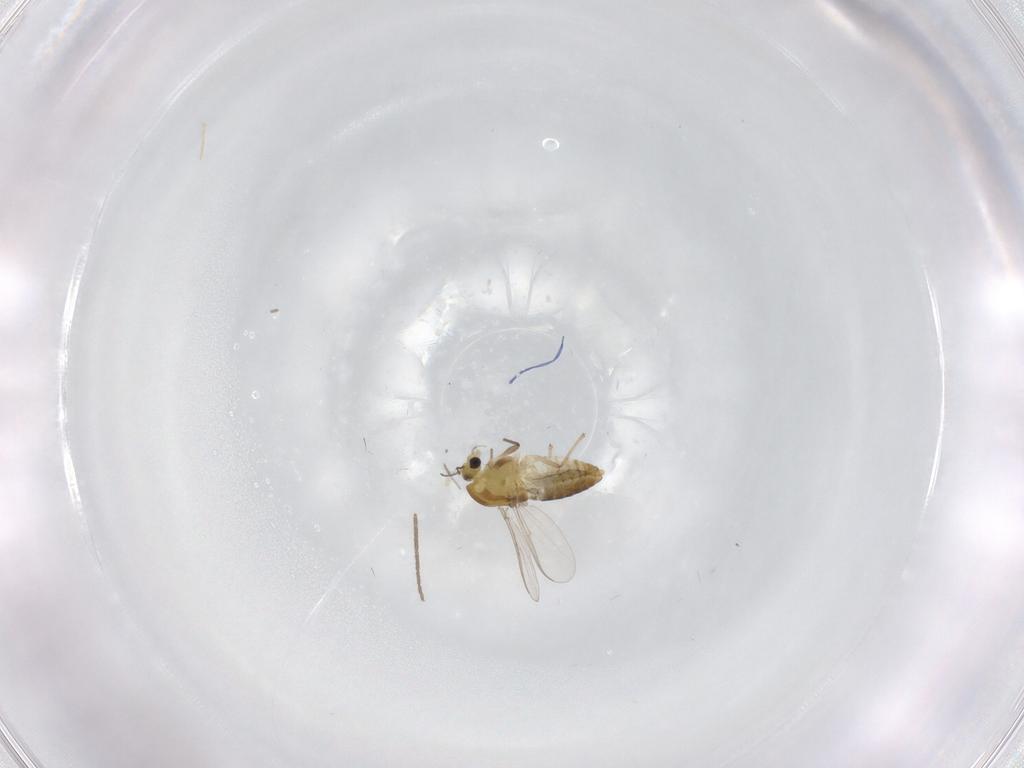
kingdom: Animalia
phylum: Arthropoda
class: Insecta
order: Diptera
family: Chironomidae
